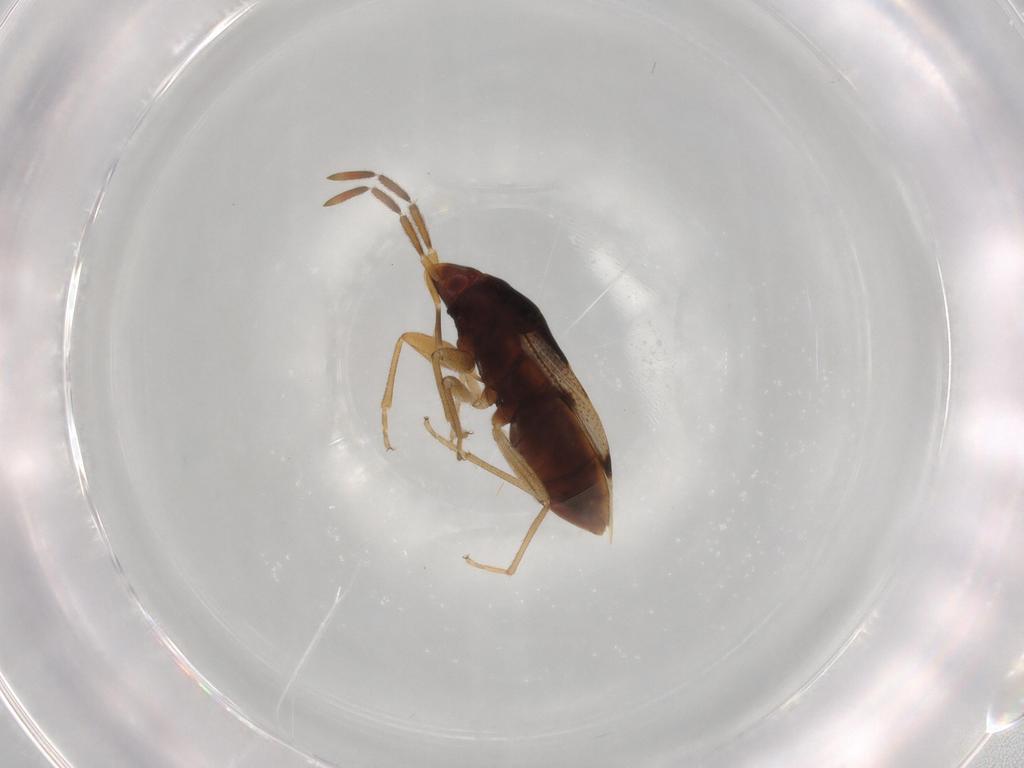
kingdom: Animalia
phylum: Arthropoda
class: Insecta
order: Hemiptera
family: Rhyparochromidae
